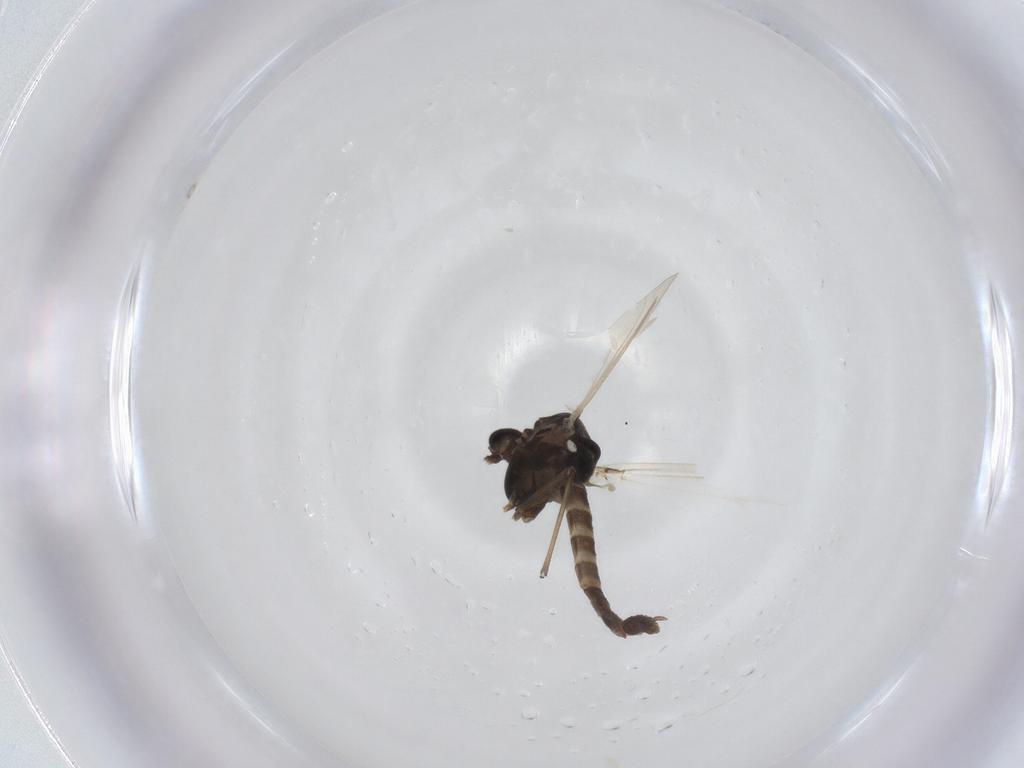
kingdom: Animalia
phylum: Arthropoda
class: Insecta
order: Diptera
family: Chironomidae
